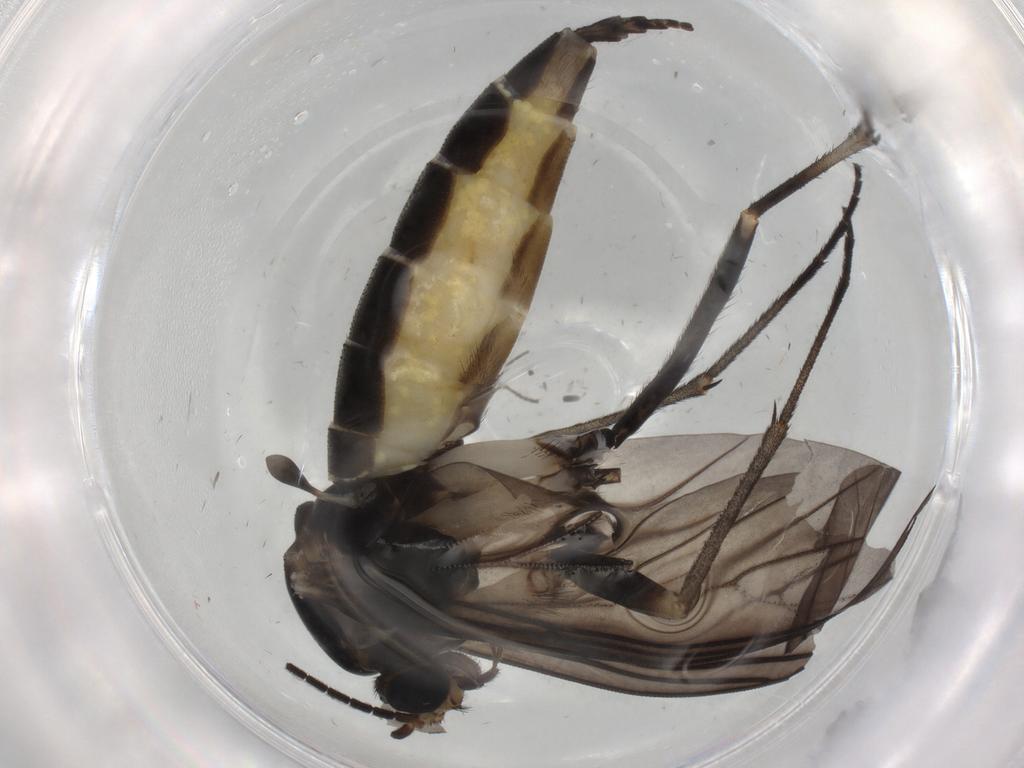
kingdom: Animalia
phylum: Arthropoda
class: Insecta
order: Diptera
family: Sciaridae
